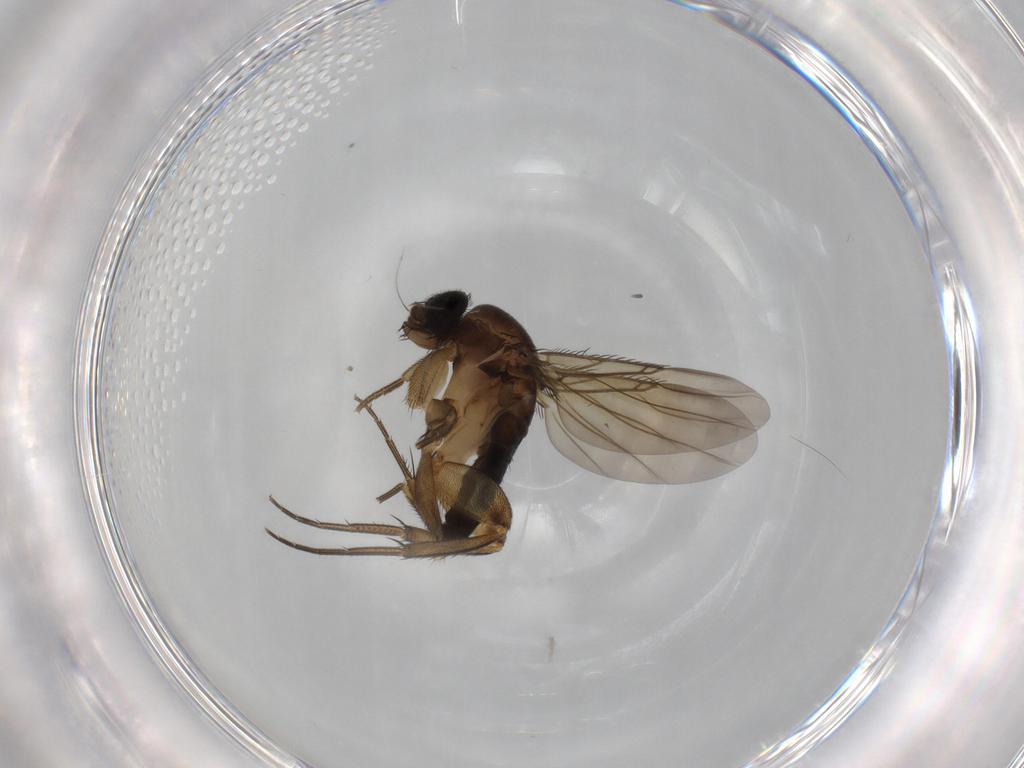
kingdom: Animalia
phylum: Arthropoda
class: Insecta
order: Diptera
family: Phoridae
